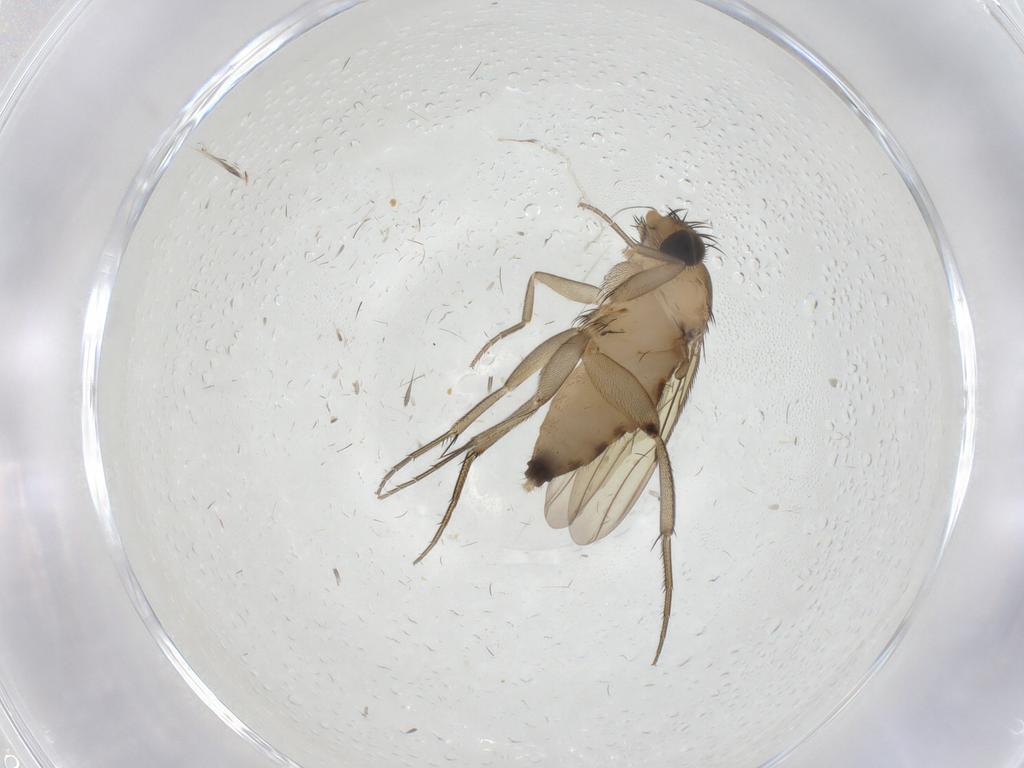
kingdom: Animalia
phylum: Arthropoda
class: Insecta
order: Diptera
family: Phoridae
